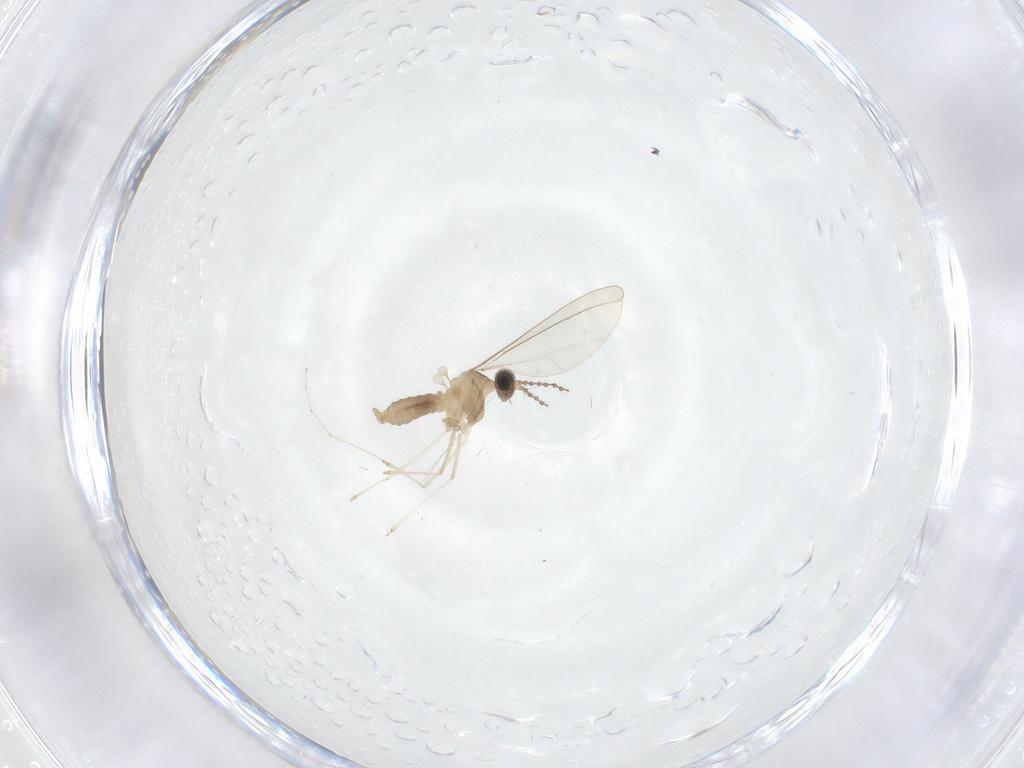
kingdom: Animalia
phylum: Arthropoda
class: Insecta
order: Diptera
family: Cecidomyiidae
